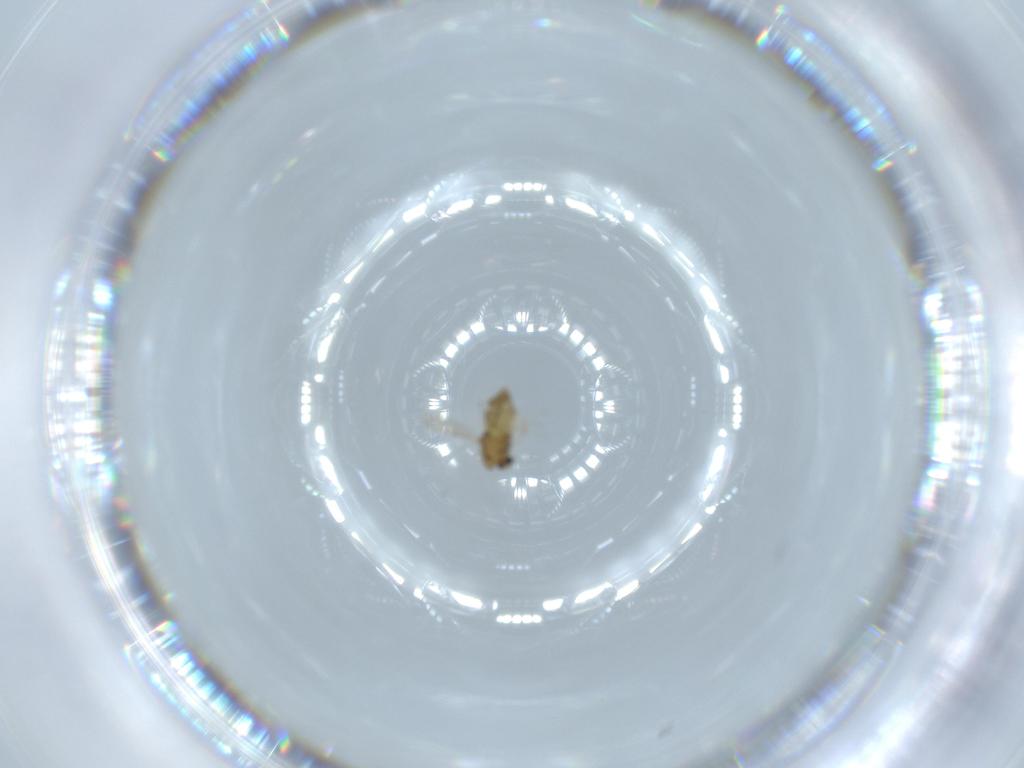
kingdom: Animalia
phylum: Arthropoda
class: Insecta
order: Diptera
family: Chironomidae
